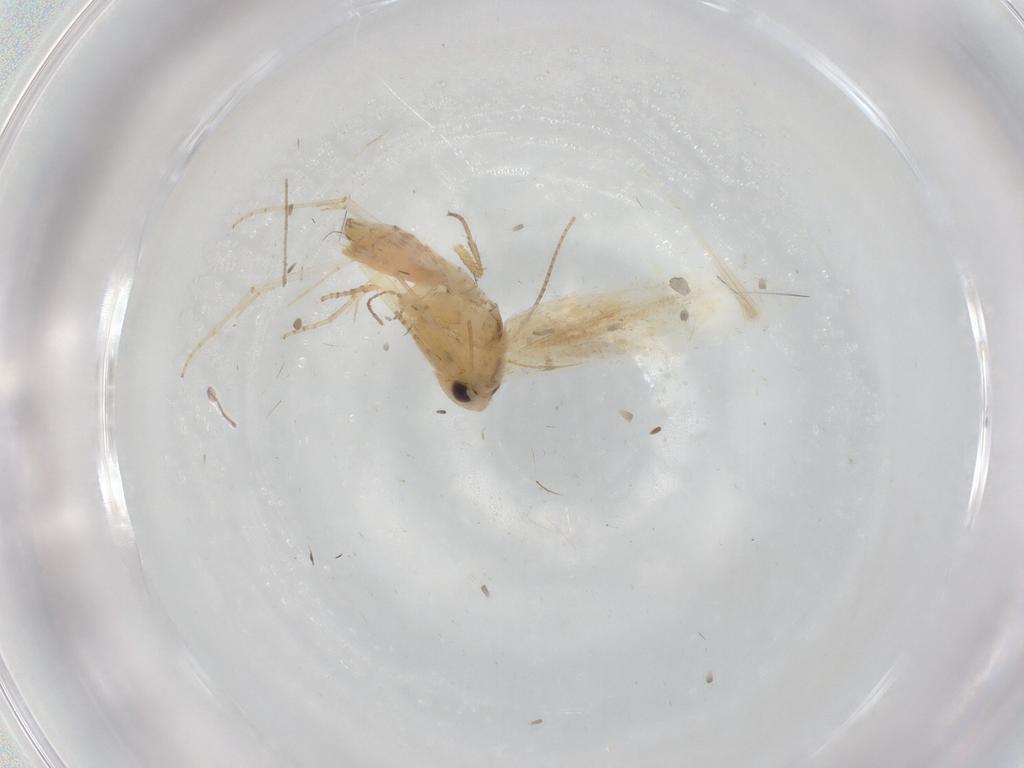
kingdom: Animalia
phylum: Arthropoda
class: Insecta
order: Lepidoptera
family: Bucculatricidae
